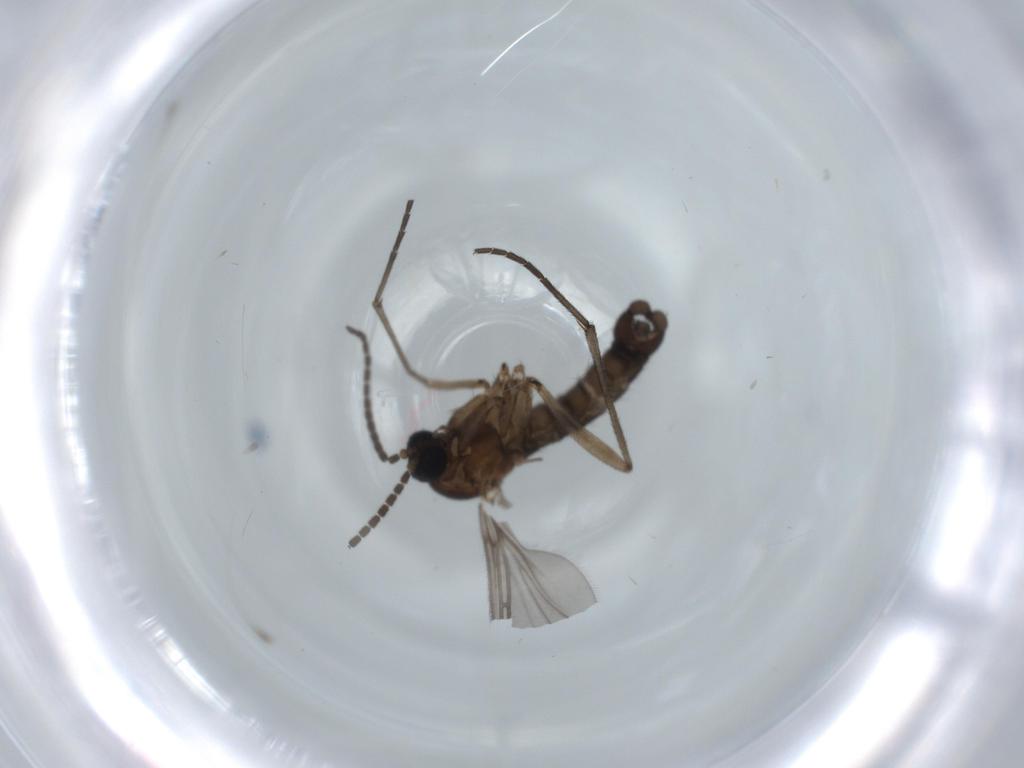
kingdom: Animalia
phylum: Arthropoda
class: Insecta
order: Diptera
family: Cecidomyiidae
